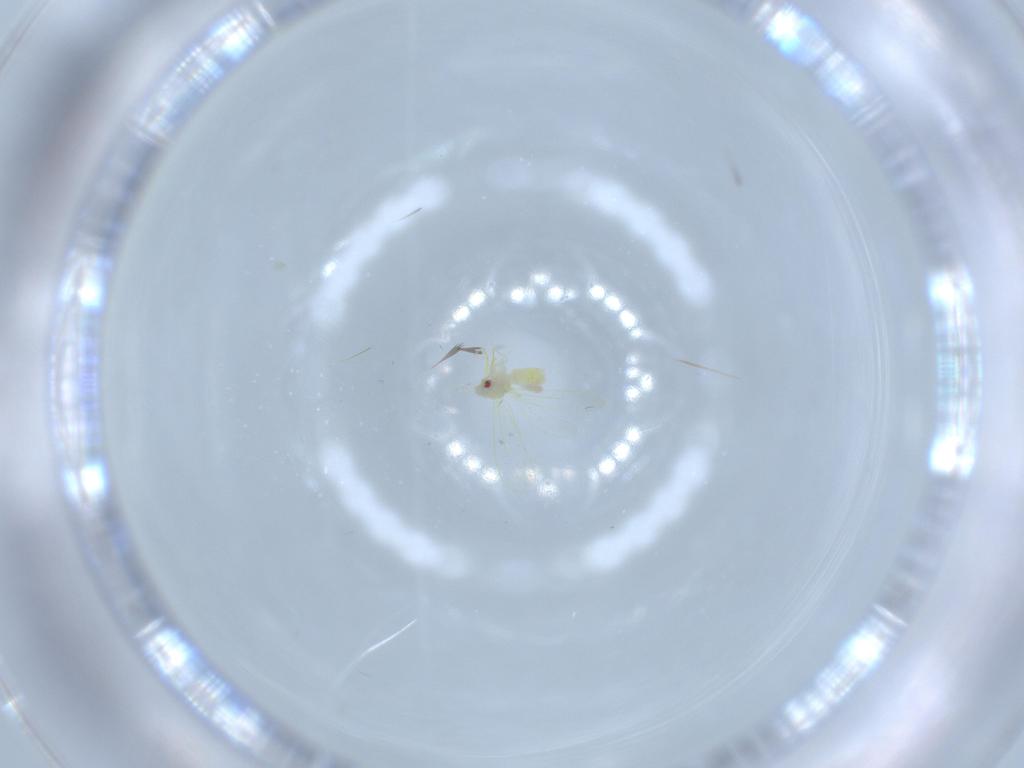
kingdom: Animalia
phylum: Arthropoda
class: Insecta
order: Hemiptera
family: Aleyrodidae
